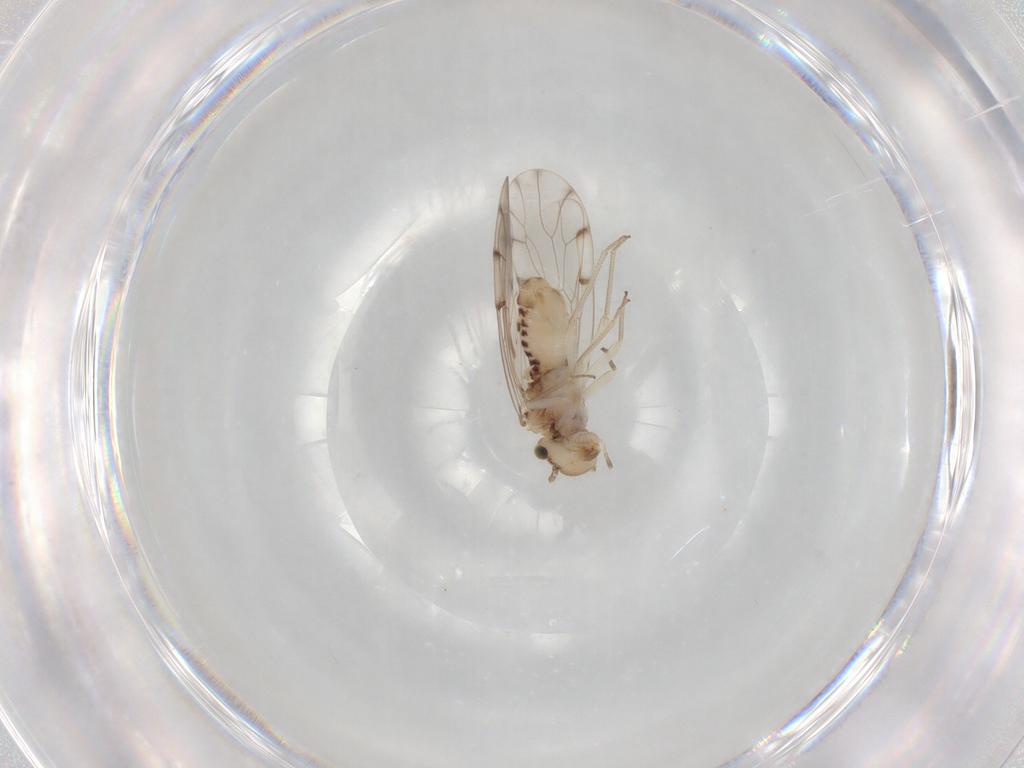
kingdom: Animalia
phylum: Arthropoda
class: Insecta
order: Psocodea
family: Ectopsocidae
